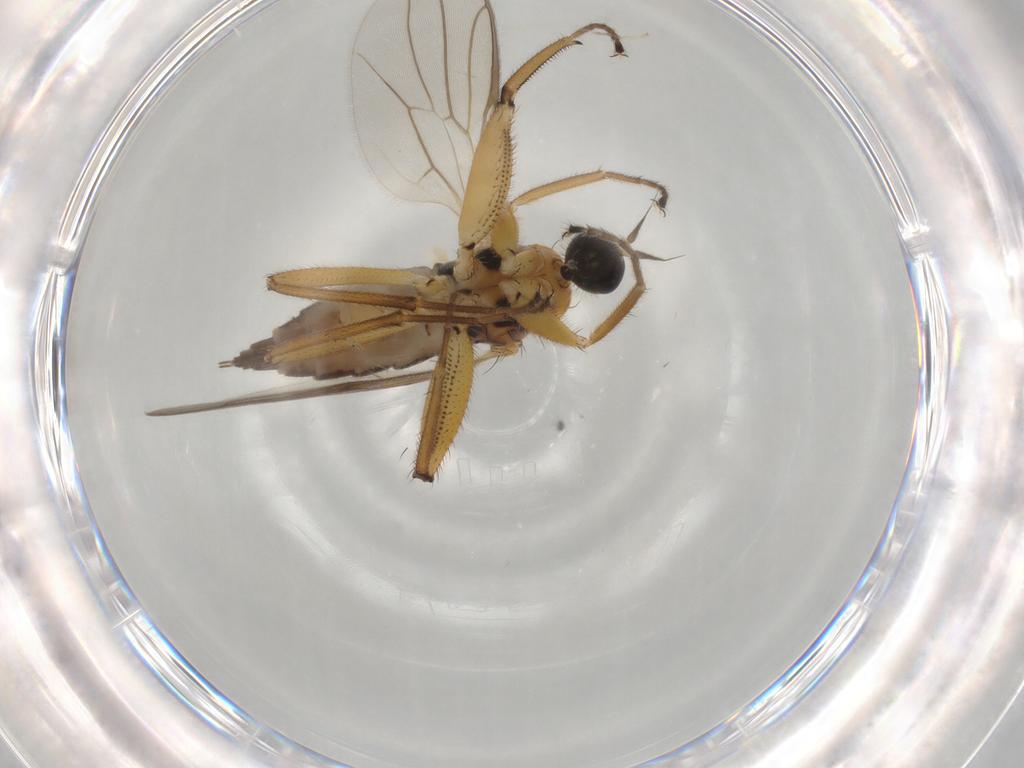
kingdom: Animalia
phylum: Arthropoda
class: Insecta
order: Diptera
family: Hybotidae
